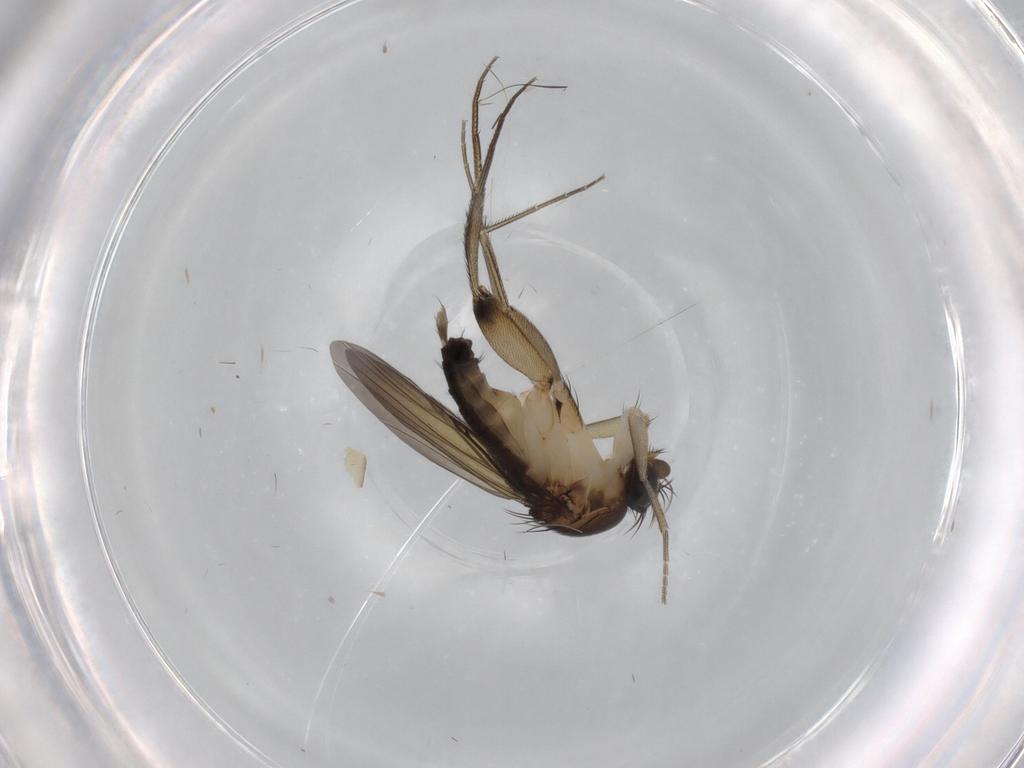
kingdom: Animalia
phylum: Arthropoda
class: Insecta
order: Diptera
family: Phoridae
